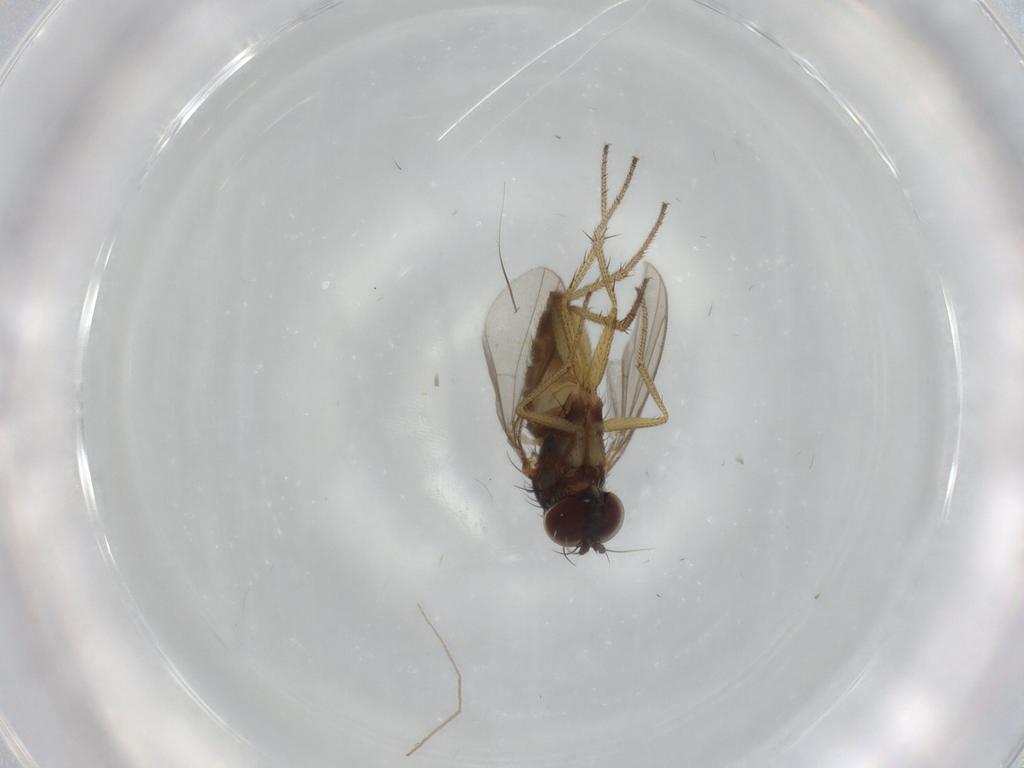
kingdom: Animalia
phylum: Arthropoda
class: Insecta
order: Diptera
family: Dolichopodidae
